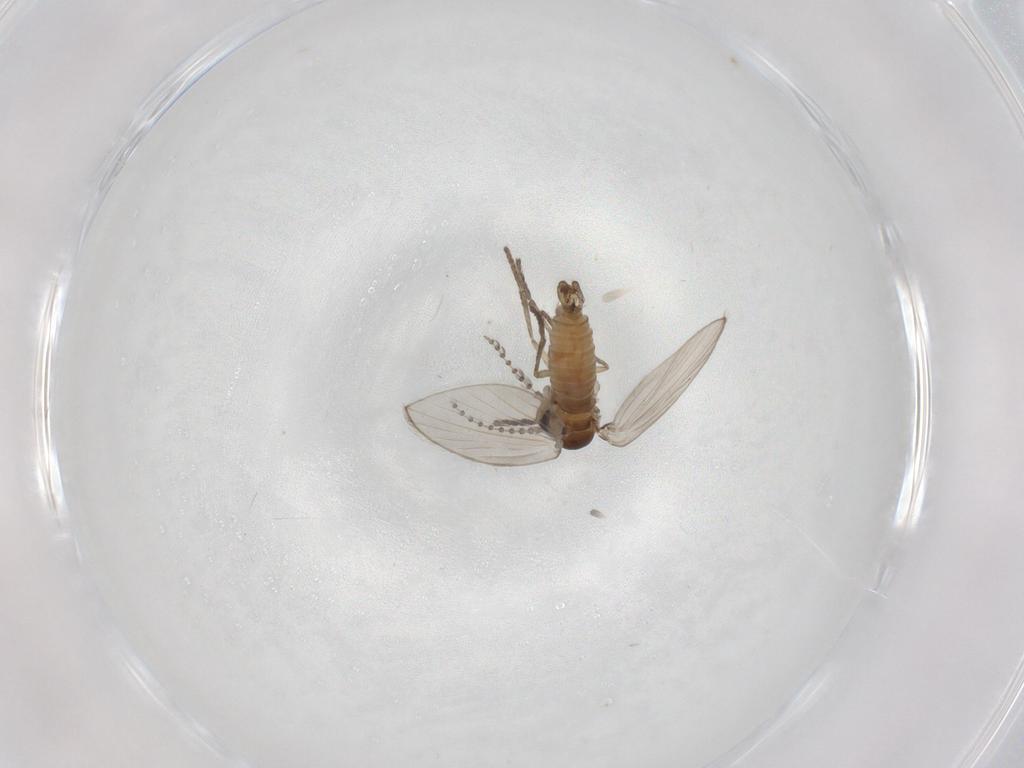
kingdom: Animalia
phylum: Arthropoda
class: Insecta
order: Diptera
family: Psychodidae
